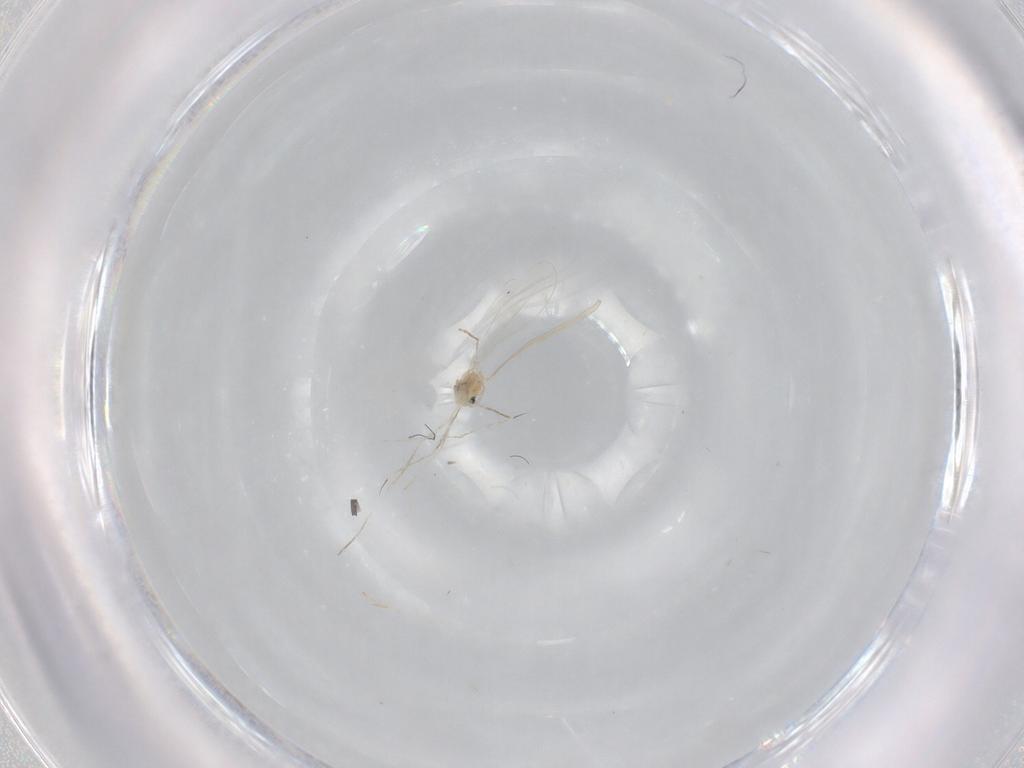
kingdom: Animalia
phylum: Arthropoda
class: Insecta
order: Diptera
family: Cecidomyiidae
